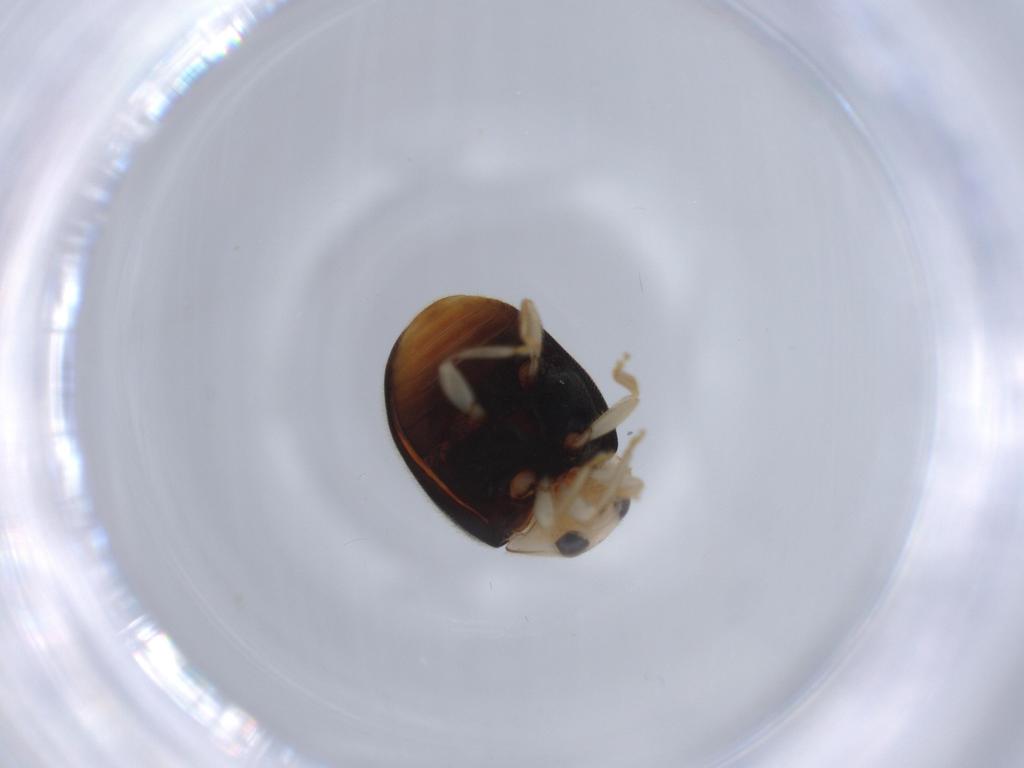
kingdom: Animalia
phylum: Arthropoda
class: Insecta
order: Coleoptera
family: Coccinellidae
